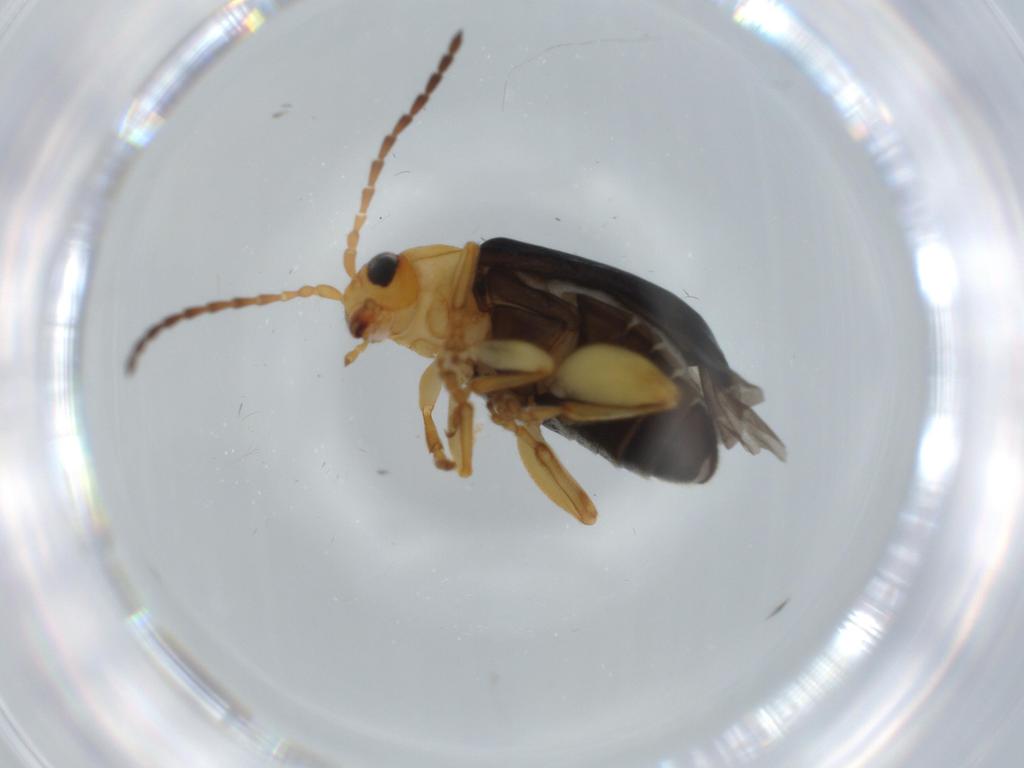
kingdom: Animalia
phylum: Arthropoda
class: Insecta
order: Coleoptera
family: Chrysomelidae
